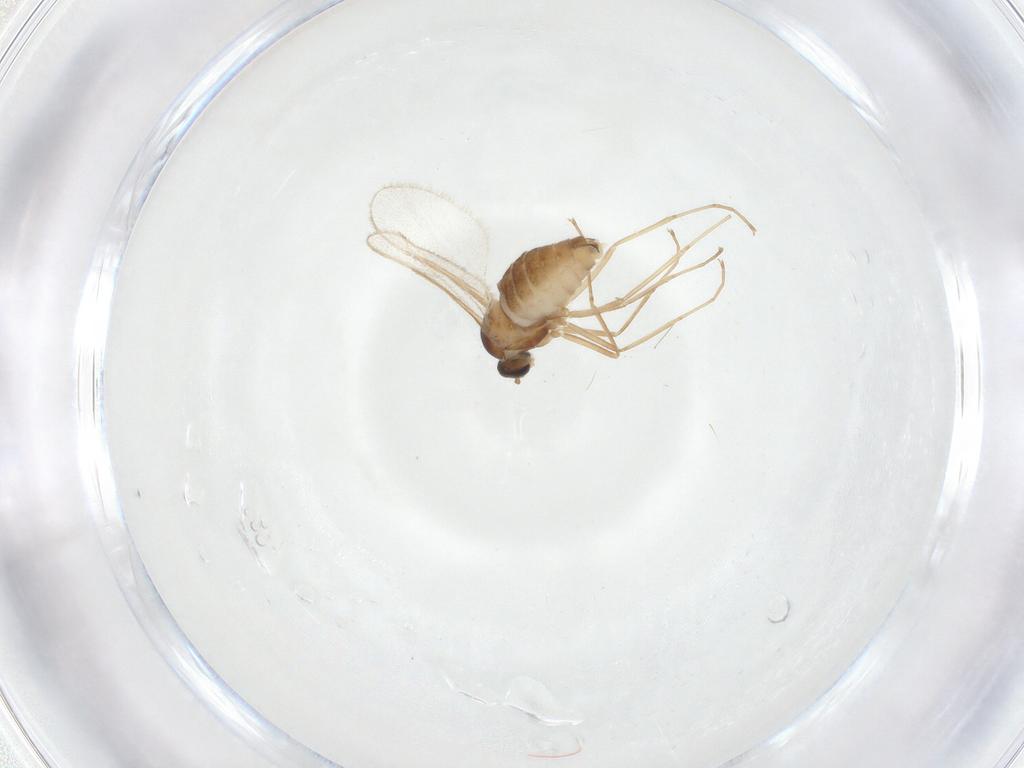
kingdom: Animalia
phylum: Arthropoda
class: Insecta
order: Diptera
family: Cecidomyiidae
